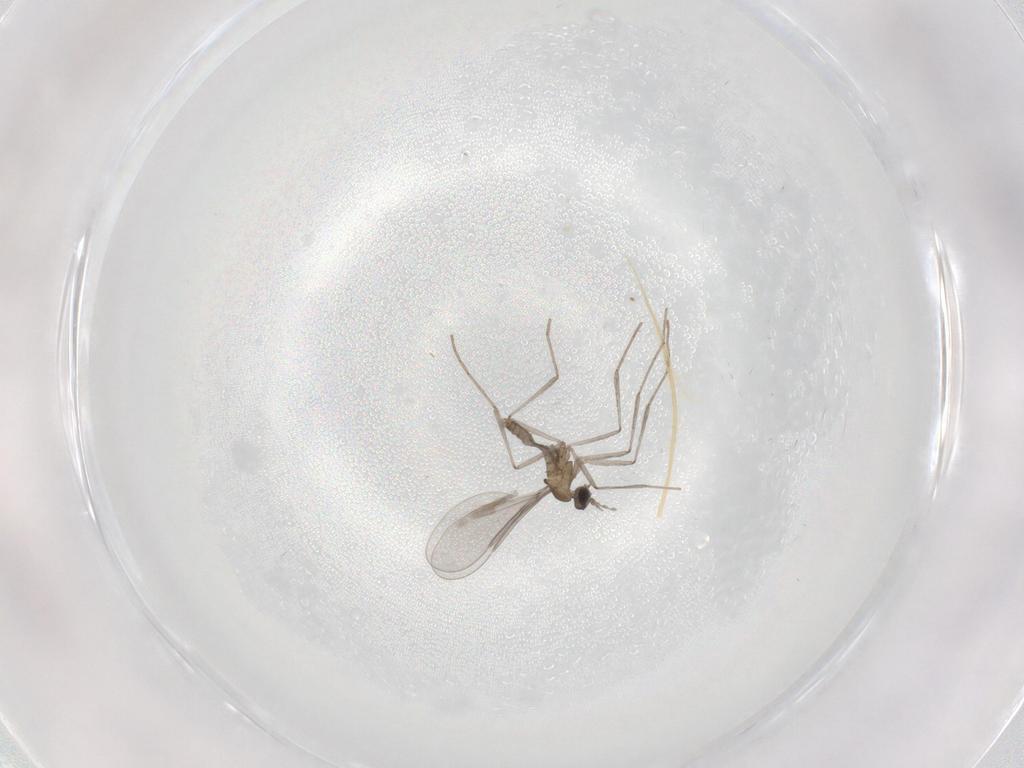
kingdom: Animalia
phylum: Arthropoda
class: Insecta
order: Diptera
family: Cecidomyiidae
